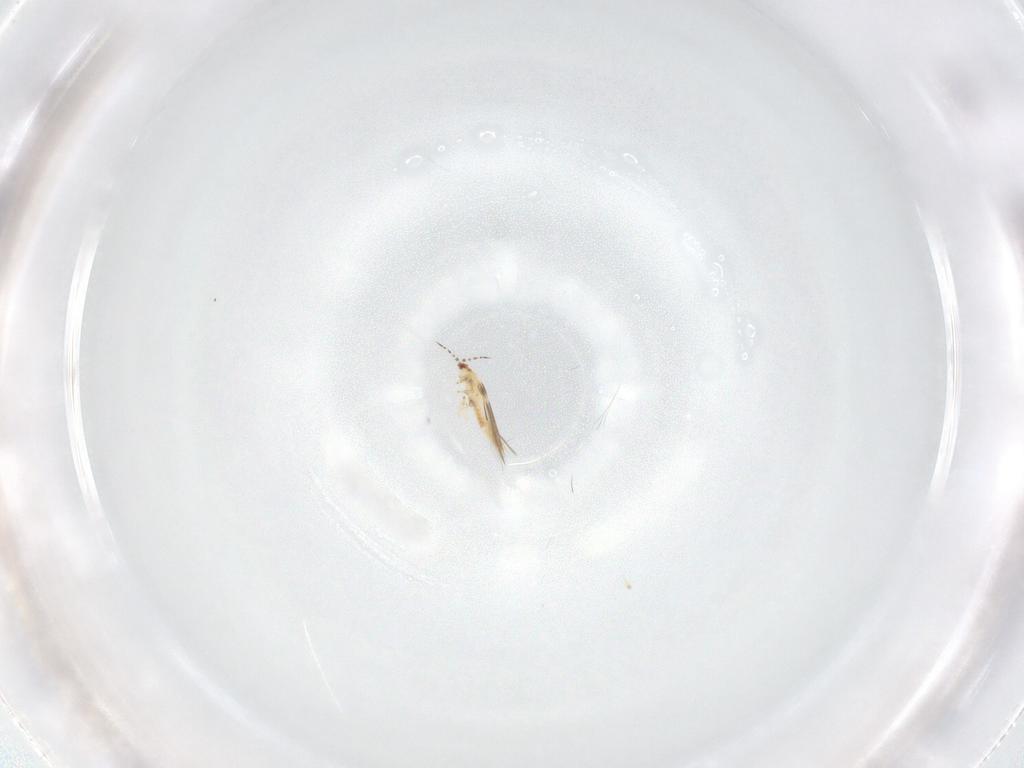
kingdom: Animalia
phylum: Arthropoda
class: Insecta
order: Thysanoptera
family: Thripidae
